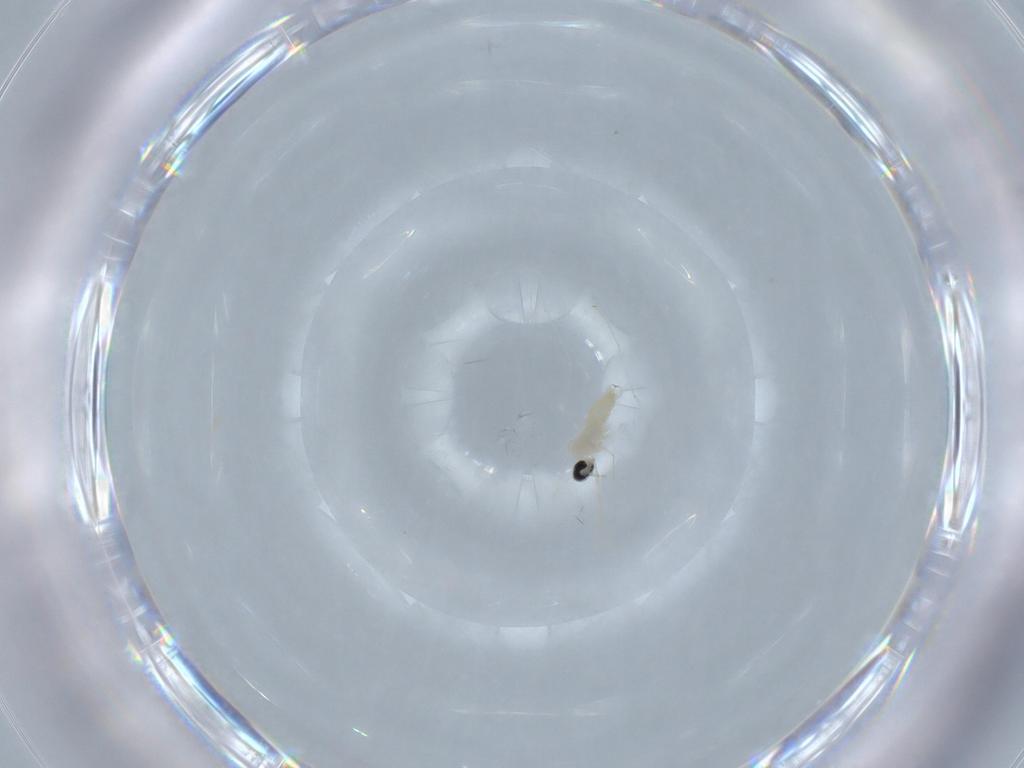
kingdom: Animalia
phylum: Arthropoda
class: Insecta
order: Diptera
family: Cecidomyiidae
